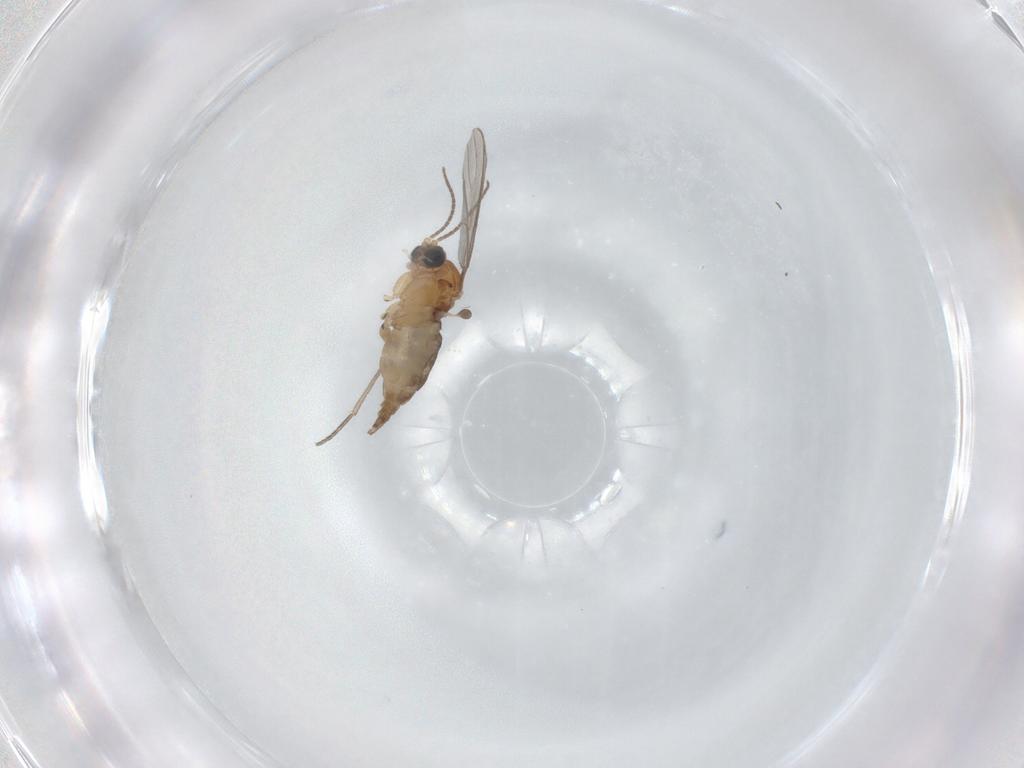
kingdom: Animalia
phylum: Arthropoda
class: Insecta
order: Diptera
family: Sciaridae
